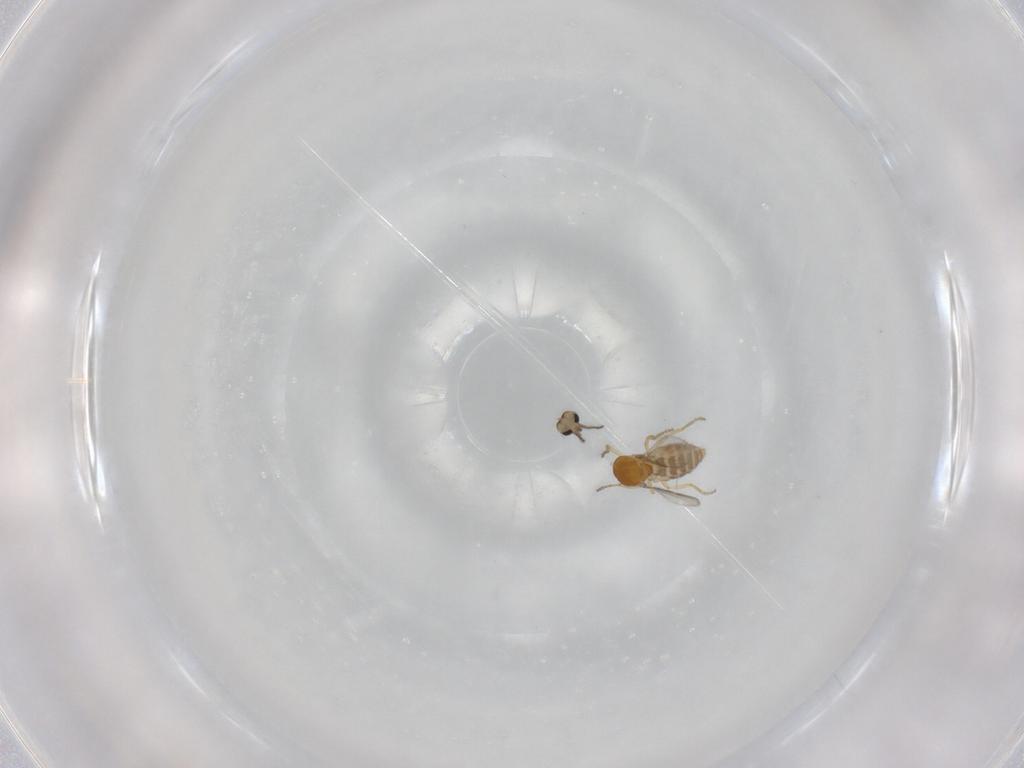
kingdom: Animalia
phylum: Arthropoda
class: Insecta
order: Diptera
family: Ceratopogonidae
